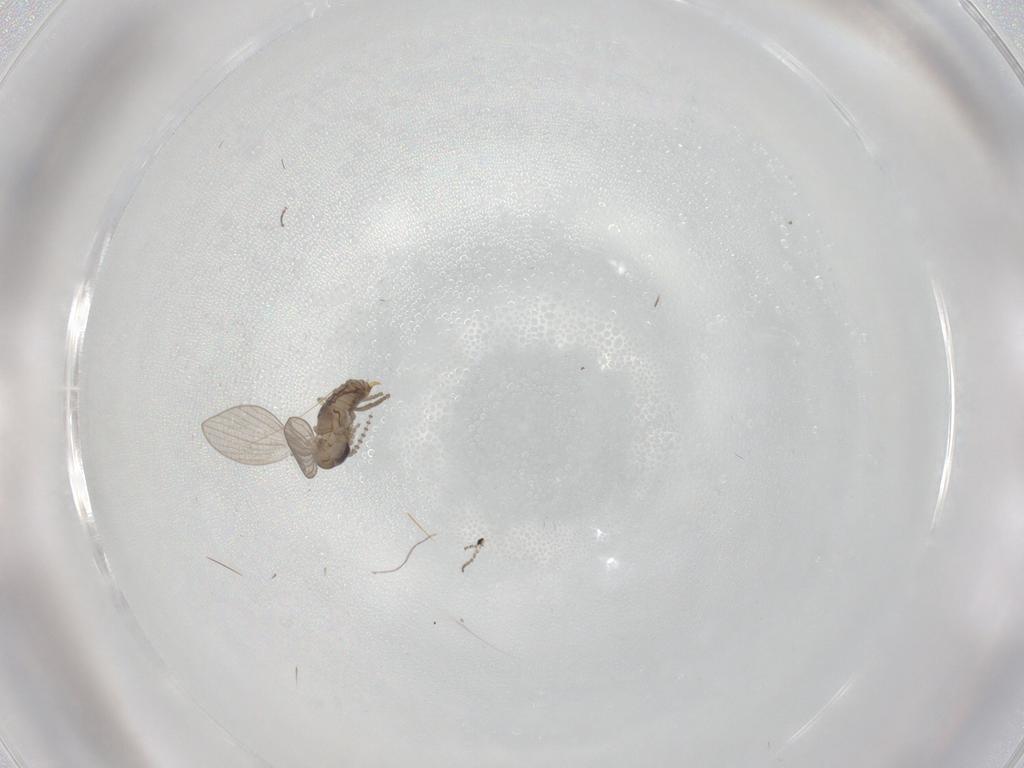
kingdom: Animalia
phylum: Arthropoda
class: Insecta
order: Diptera
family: Psychodidae
